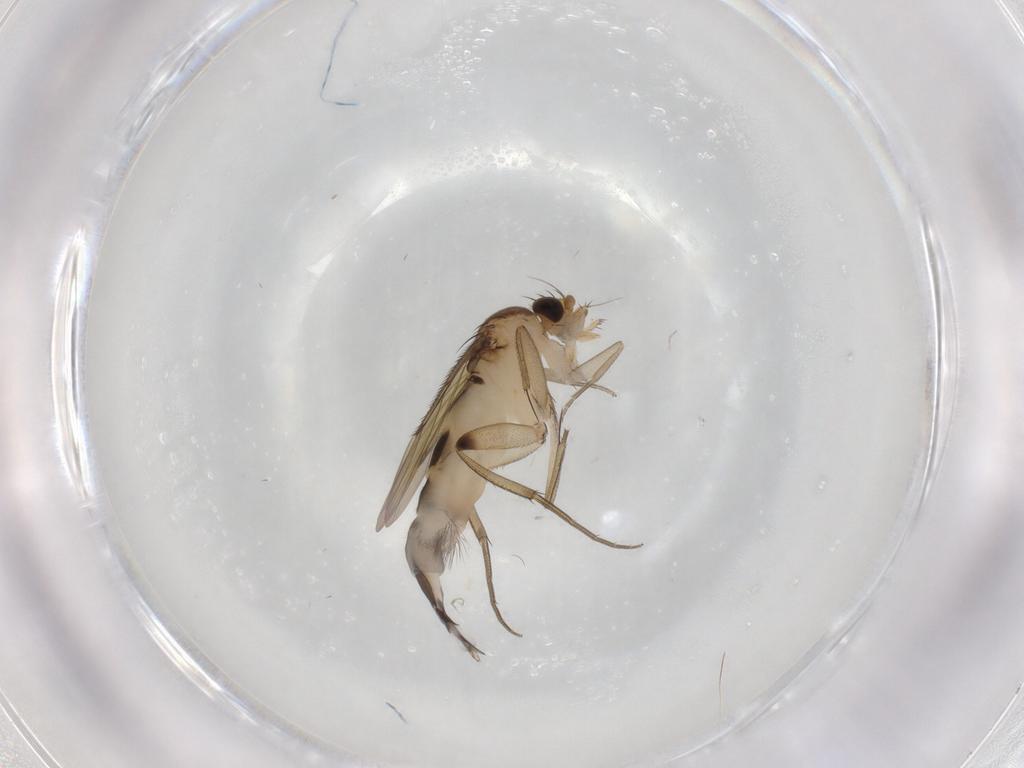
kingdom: Animalia
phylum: Arthropoda
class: Insecta
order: Diptera
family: Phoridae
